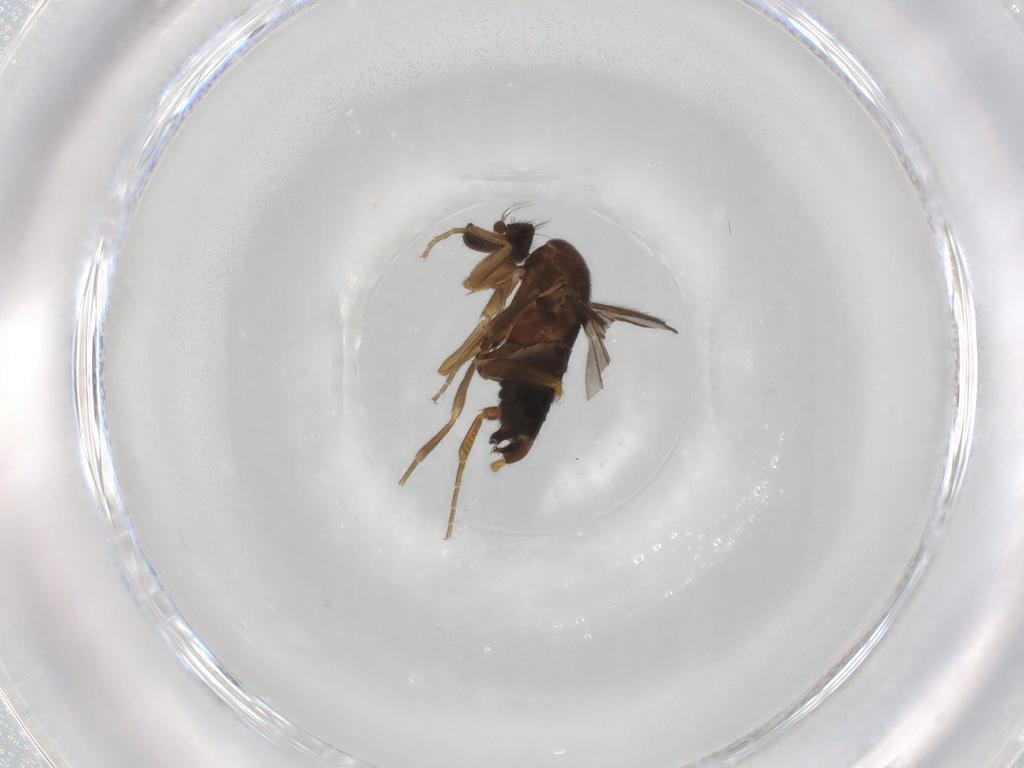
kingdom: Animalia
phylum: Arthropoda
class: Insecta
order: Diptera
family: Phoridae
